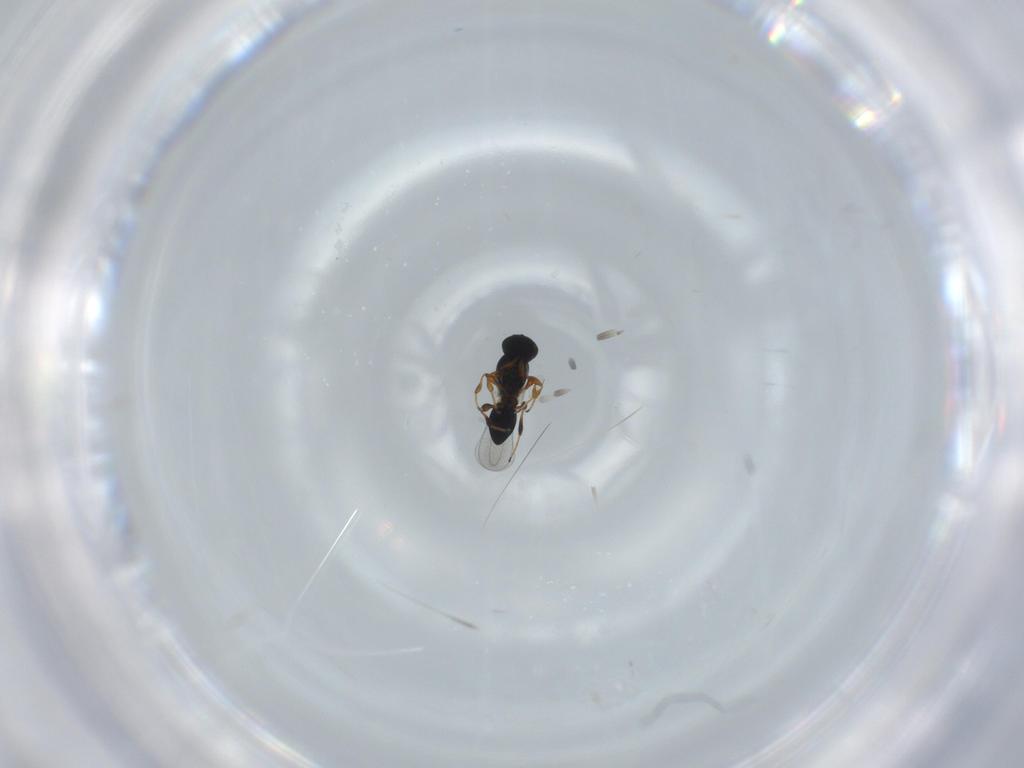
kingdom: Animalia
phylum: Arthropoda
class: Insecta
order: Hymenoptera
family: Platygastridae
